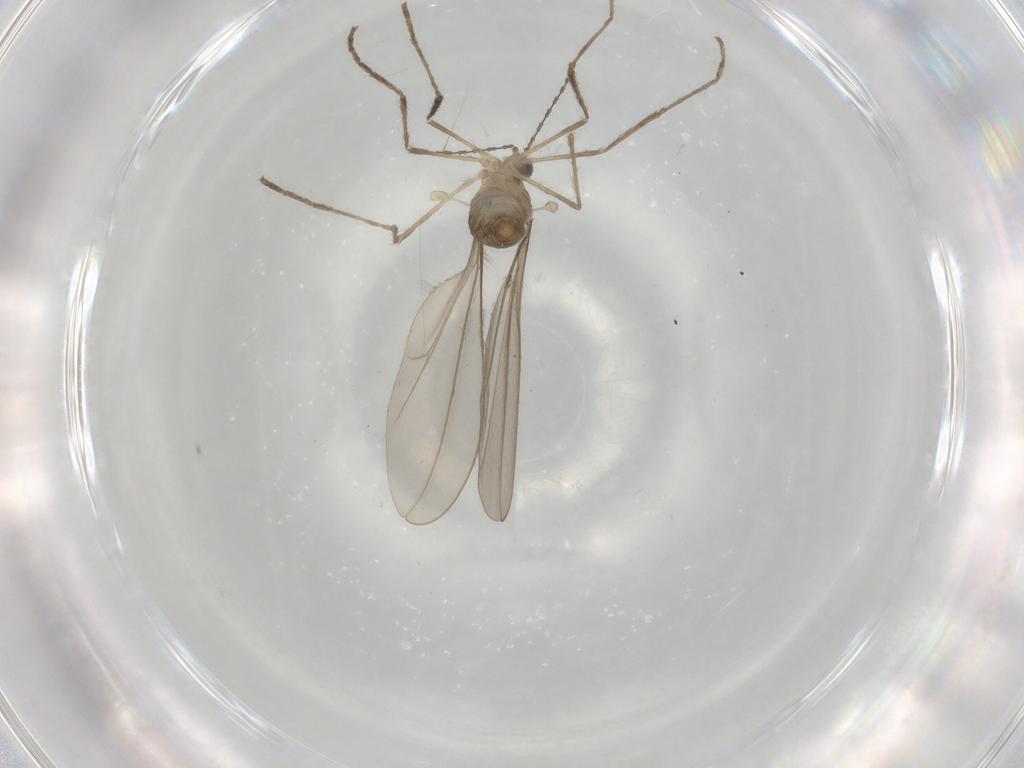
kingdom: Animalia
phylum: Arthropoda
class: Insecta
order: Diptera
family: Cecidomyiidae
